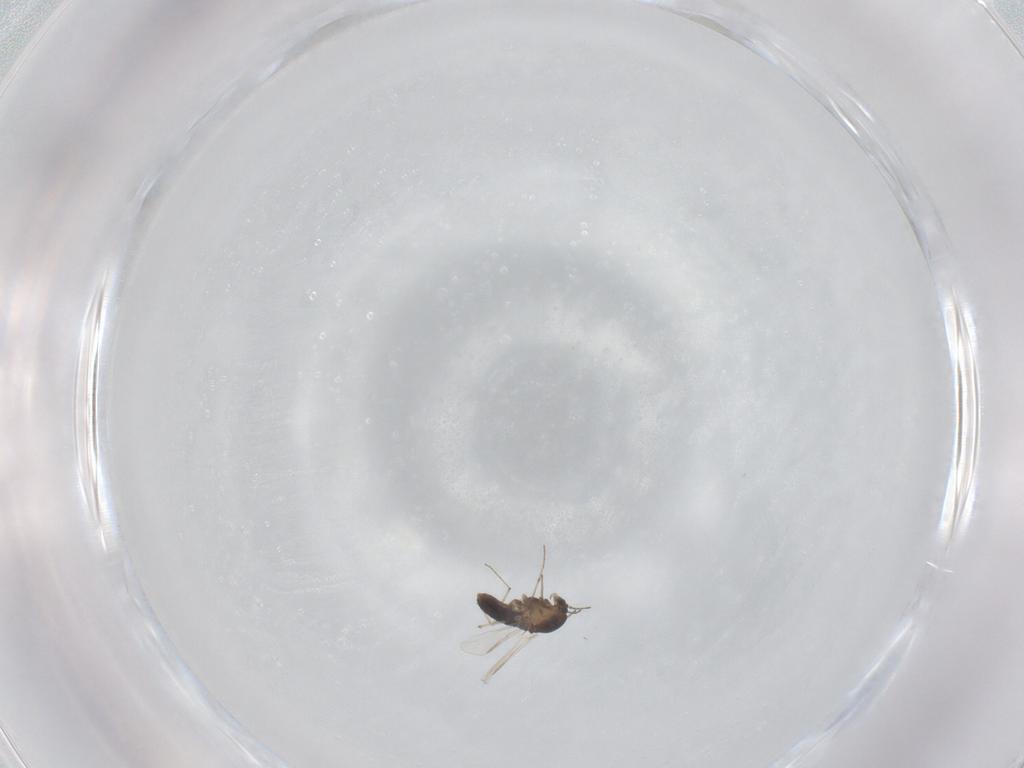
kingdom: Animalia
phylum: Arthropoda
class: Insecta
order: Diptera
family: Chironomidae
